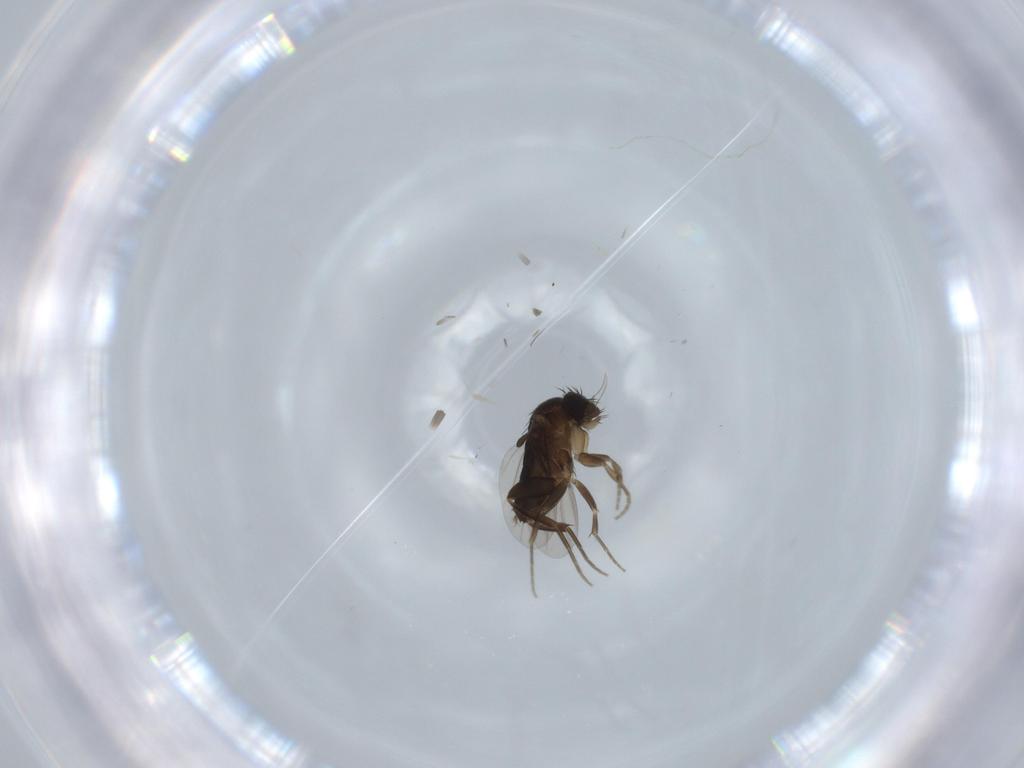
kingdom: Animalia
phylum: Arthropoda
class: Insecta
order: Diptera
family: Phoridae
